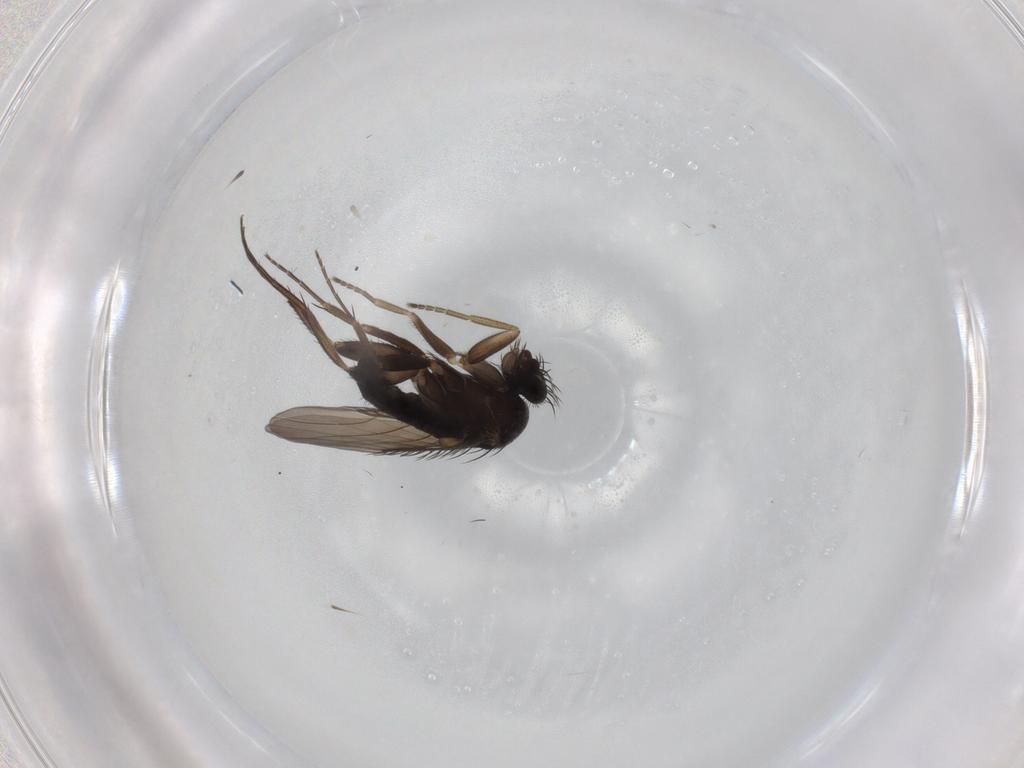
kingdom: Animalia
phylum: Arthropoda
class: Insecta
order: Diptera
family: Phoridae
